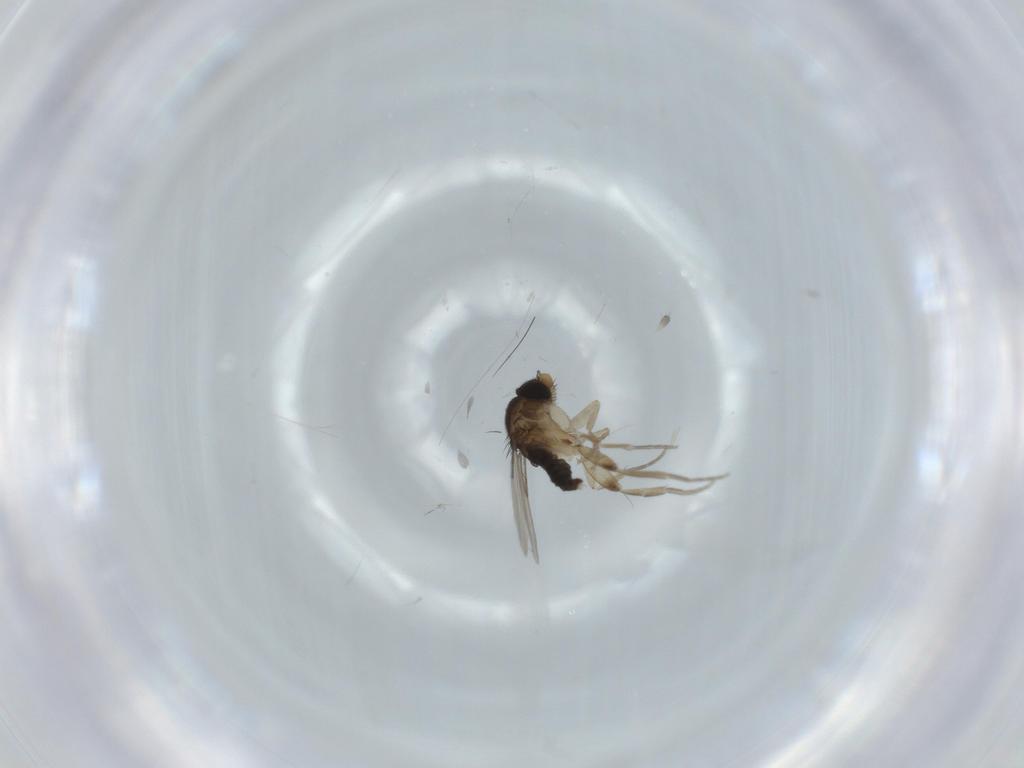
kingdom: Animalia
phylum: Arthropoda
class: Insecta
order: Diptera
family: Phoridae
